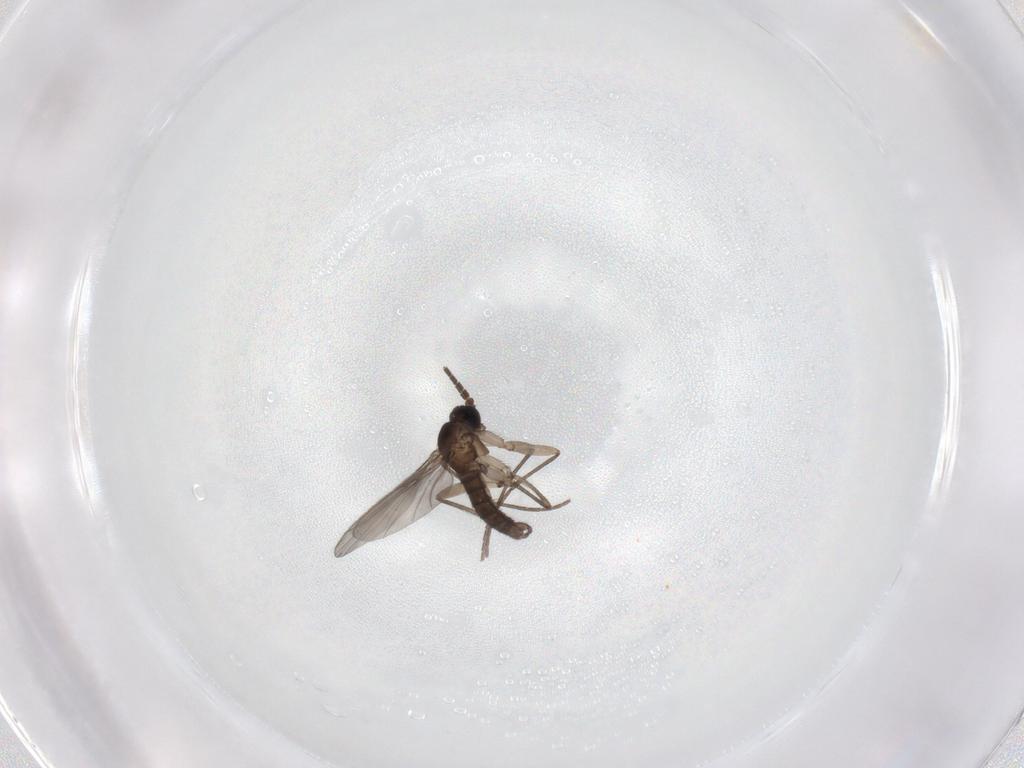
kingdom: Animalia
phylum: Arthropoda
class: Insecta
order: Diptera
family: Sciaridae
